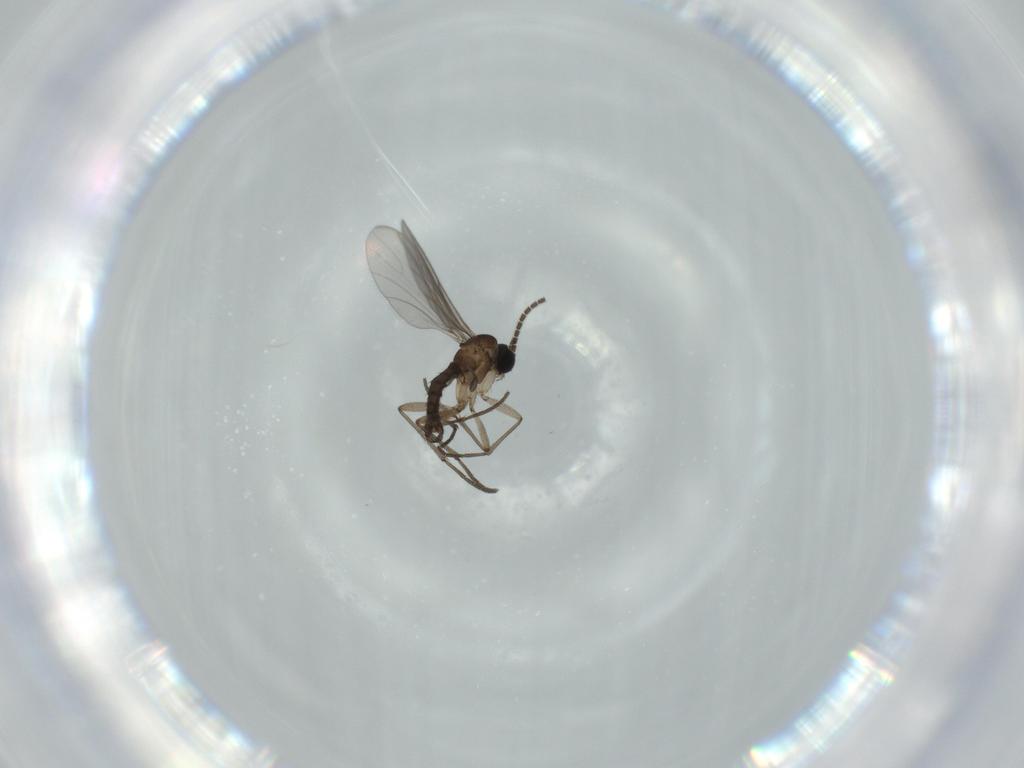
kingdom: Animalia
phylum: Arthropoda
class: Insecta
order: Diptera
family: Sciaridae
